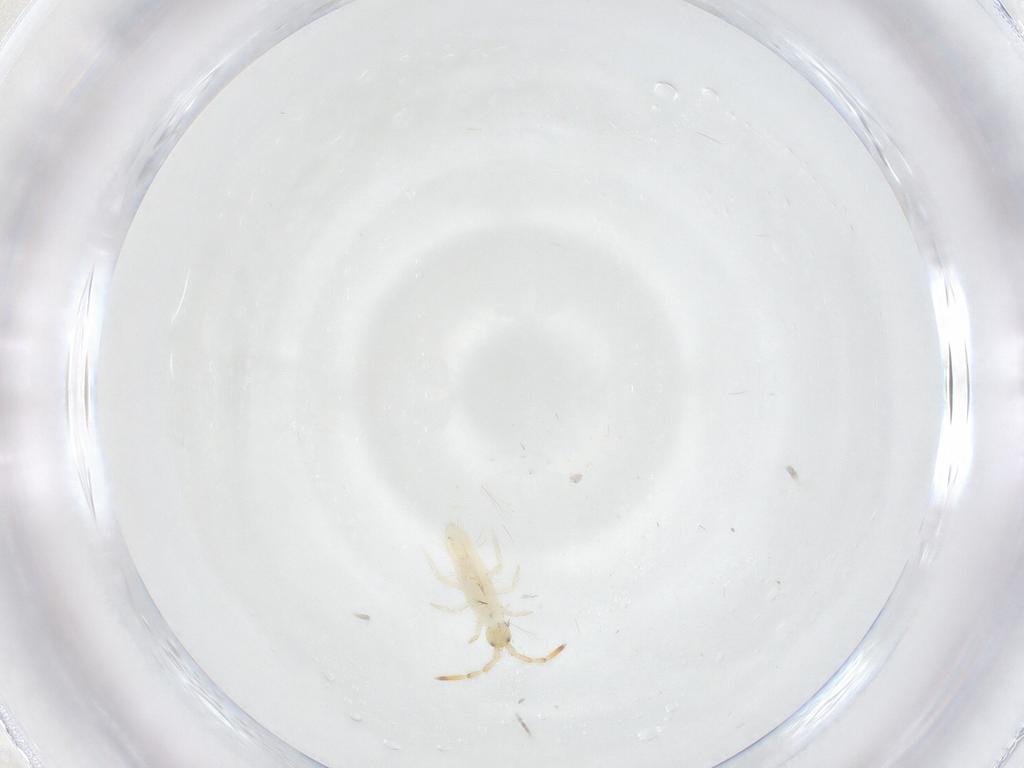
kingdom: Animalia
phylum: Arthropoda
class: Collembola
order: Entomobryomorpha
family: Entomobryidae
